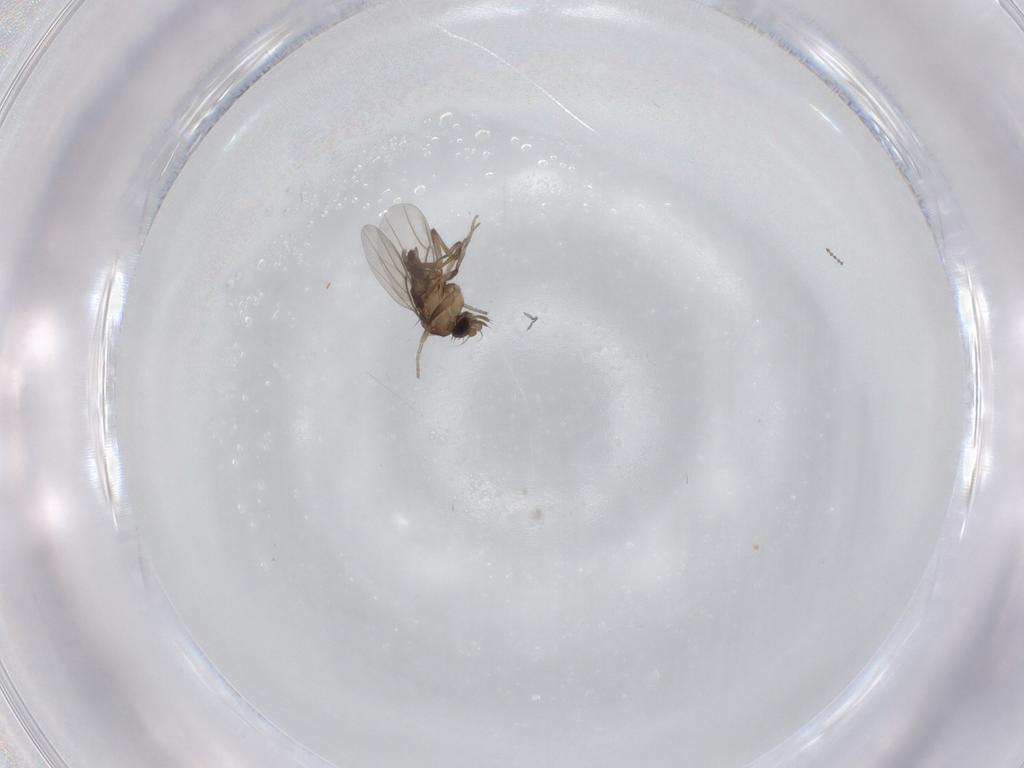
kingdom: Animalia
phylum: Arthropoda
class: Insecta
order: Diptera
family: Phoridae
